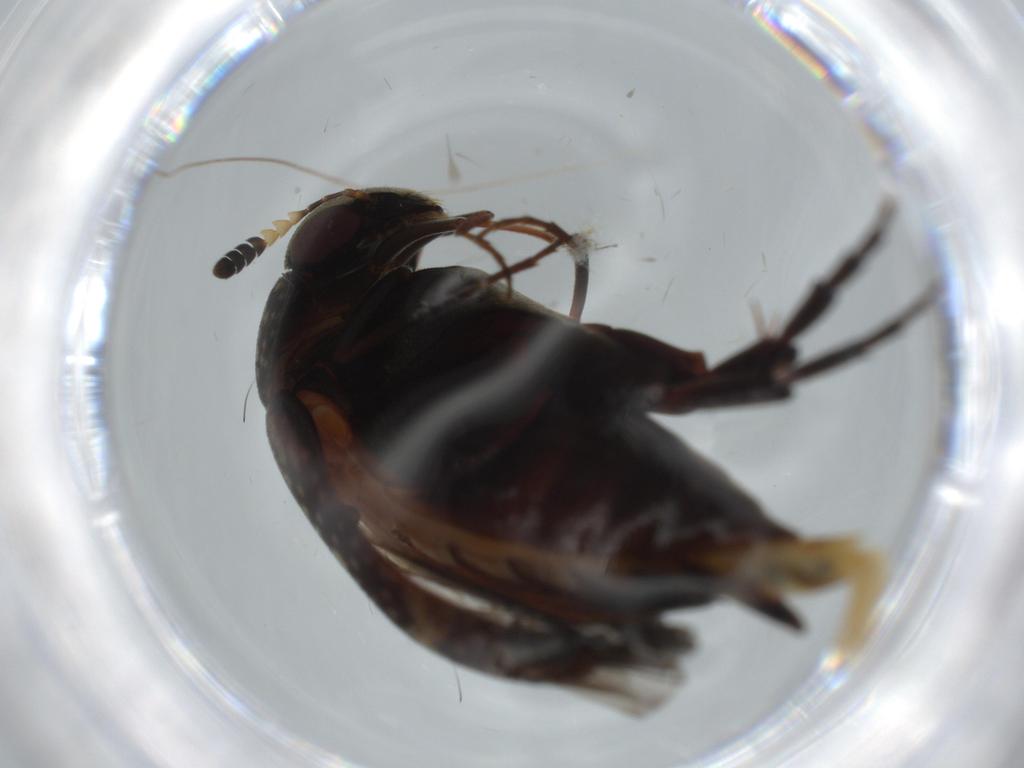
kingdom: Animalia
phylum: Arthropoda
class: Insecta
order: Coleoptera
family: Curculionidae
